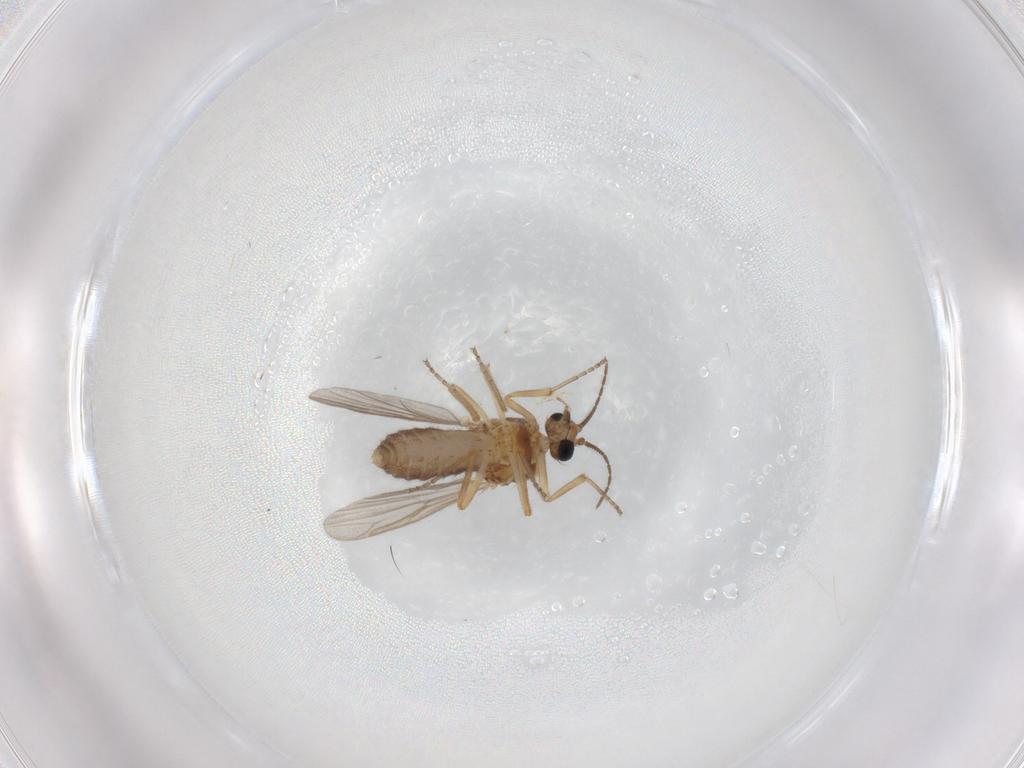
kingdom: Animalia
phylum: Arthropoda
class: Insecta
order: Diptera
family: Ceratopogonidae
